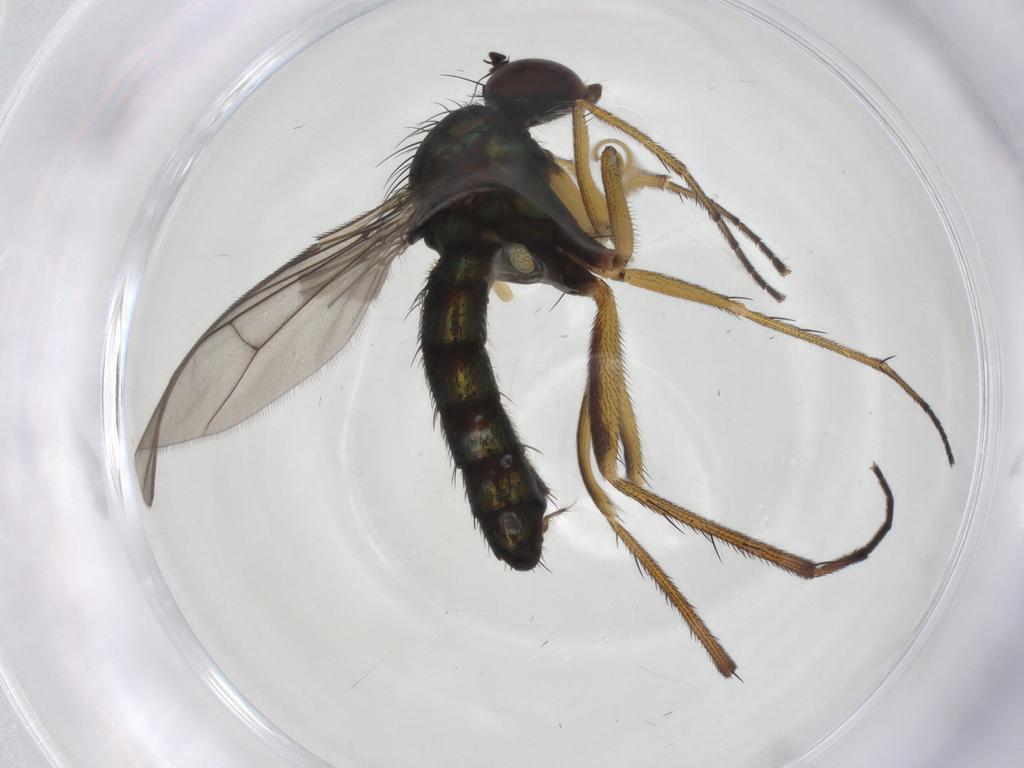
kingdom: Animalia
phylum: Arthropoda
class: Insecta
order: Diptera
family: Dolichopodidae
